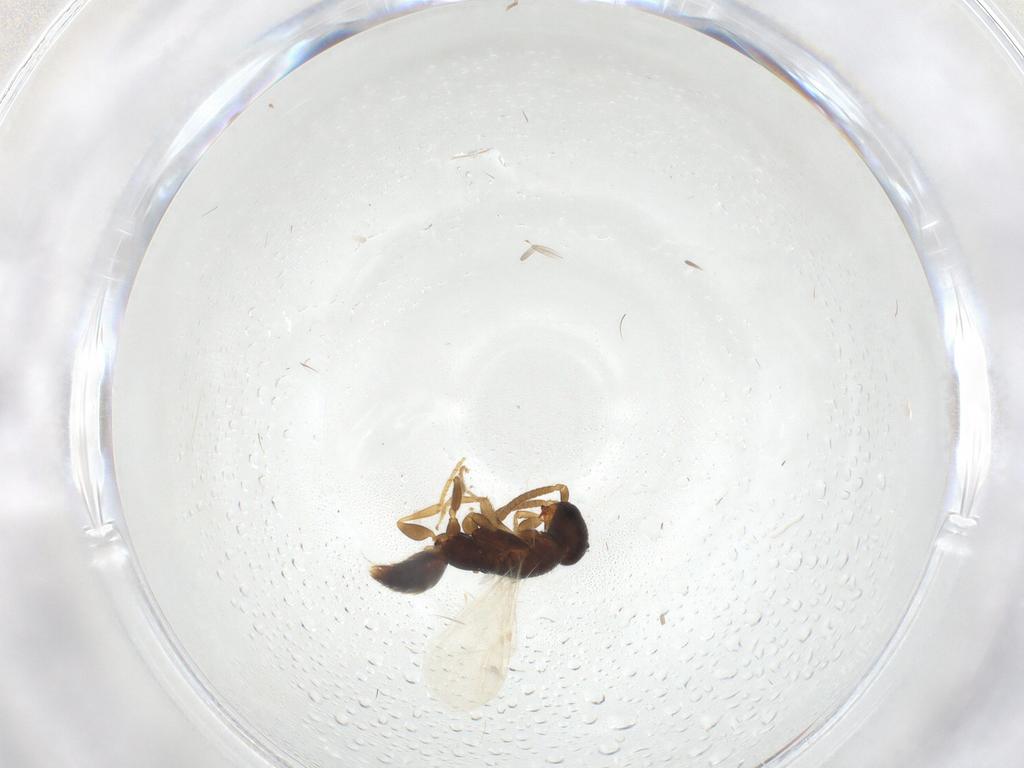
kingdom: Animalia
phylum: Arthropoda
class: Insecta
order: Hymenoptera
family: Bethylidae
